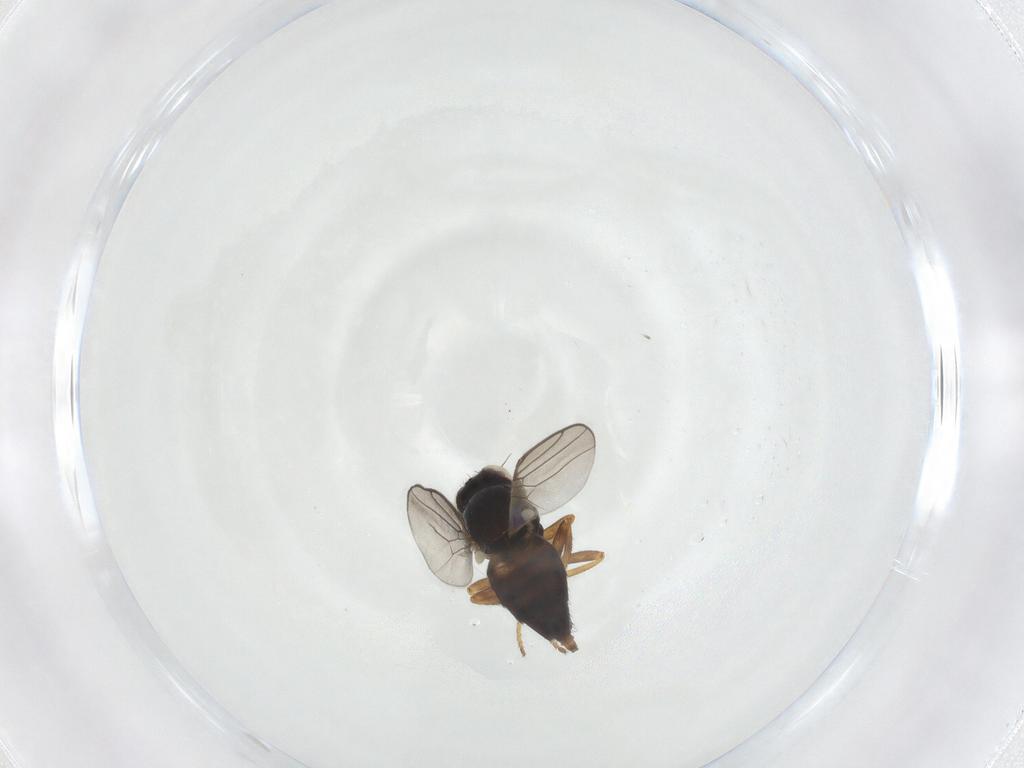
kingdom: Animalia
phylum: Arthropoda
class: Insecta
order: Diptera
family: Chloropidae
